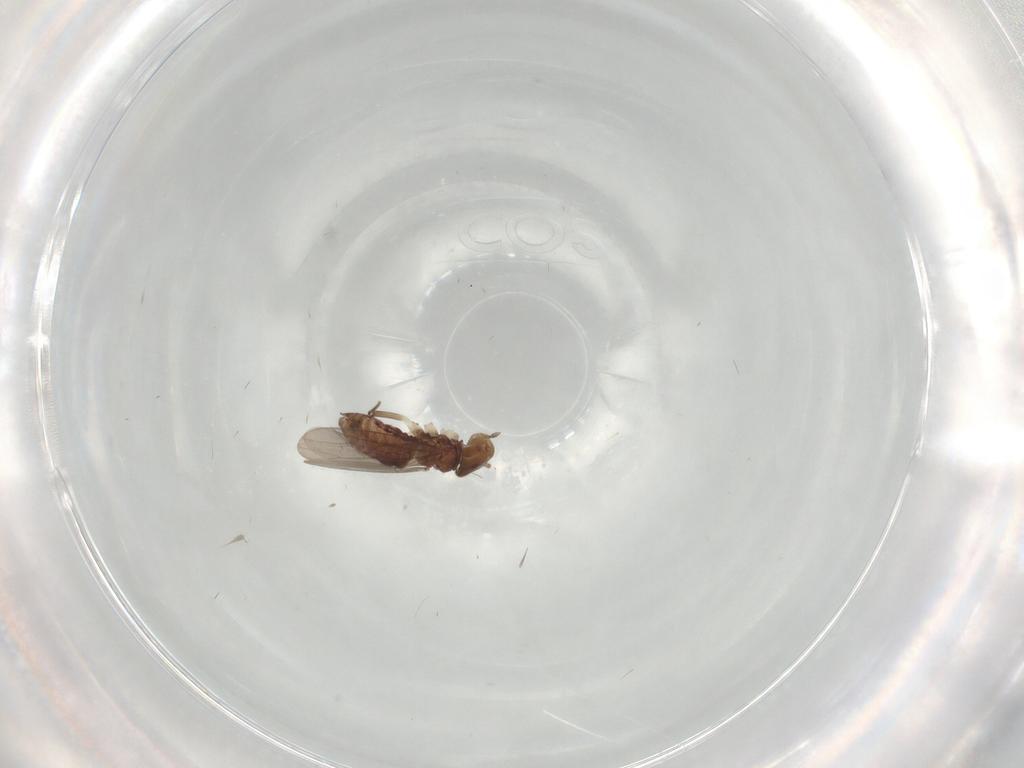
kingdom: Animalia
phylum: Arthropoda
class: Insecta
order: Psocodea
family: Lepidopsocidae
